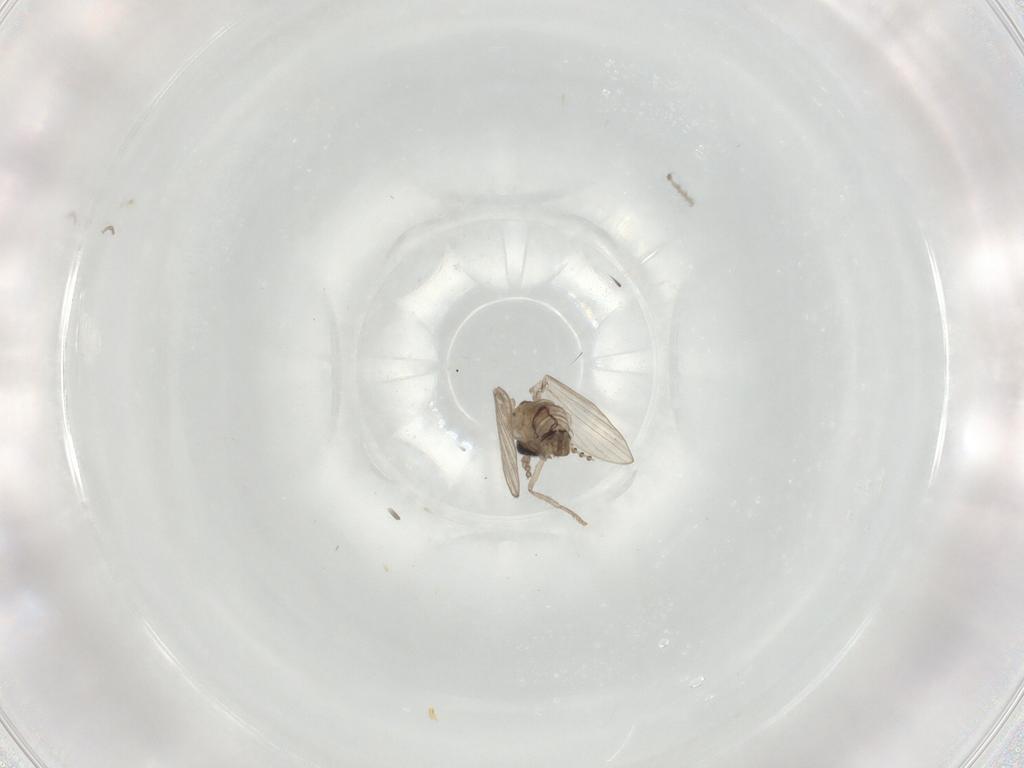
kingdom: Animalia
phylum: Arthropoda
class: Insecta
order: Diptera
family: Psychodidae
